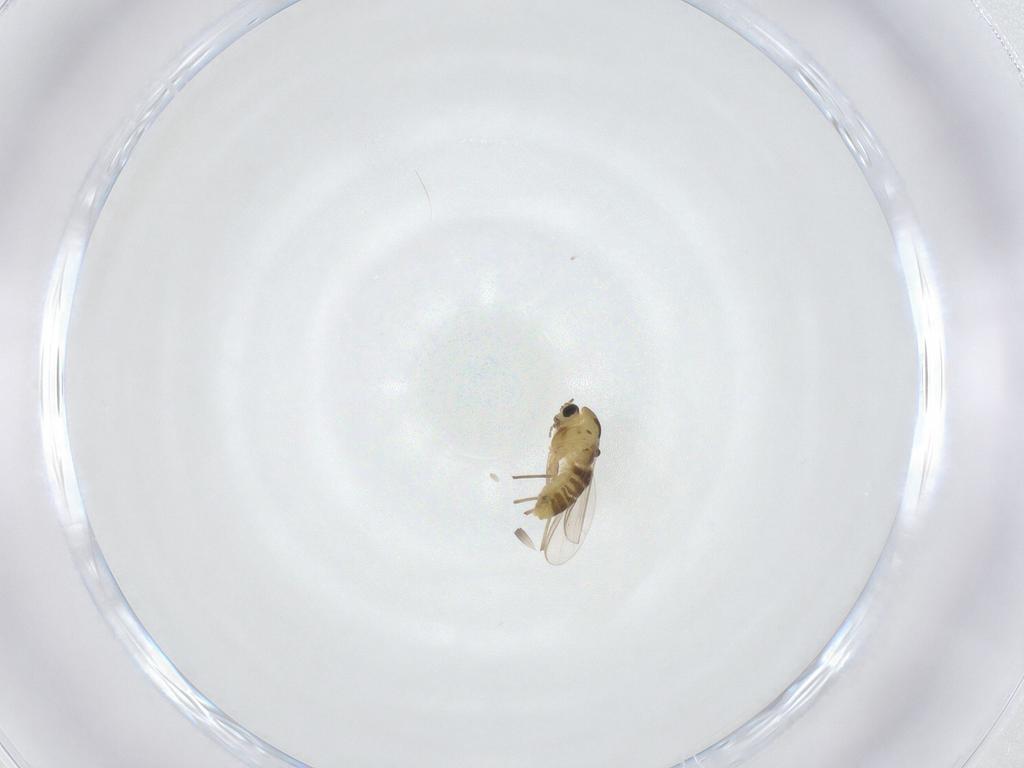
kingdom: Animalia
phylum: Arthropoda
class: Insecta
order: Diptera
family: Chironomidae
